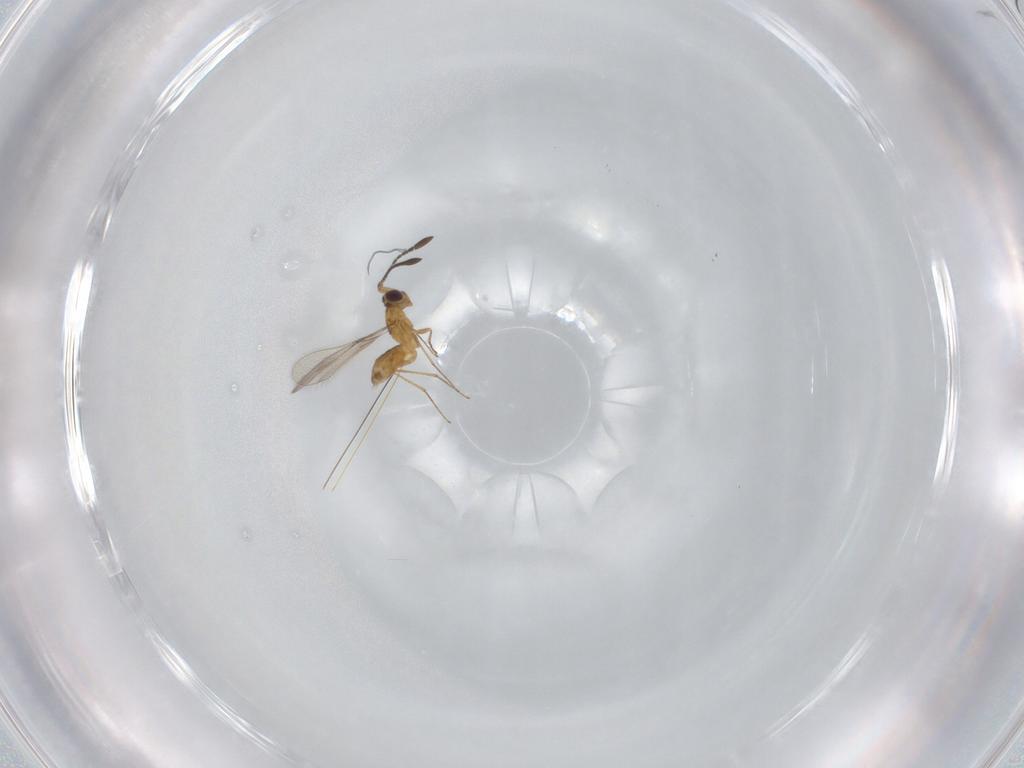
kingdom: Animalia
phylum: Arthropoda
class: Insecta
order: Hymenoptera
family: Mymaridae
